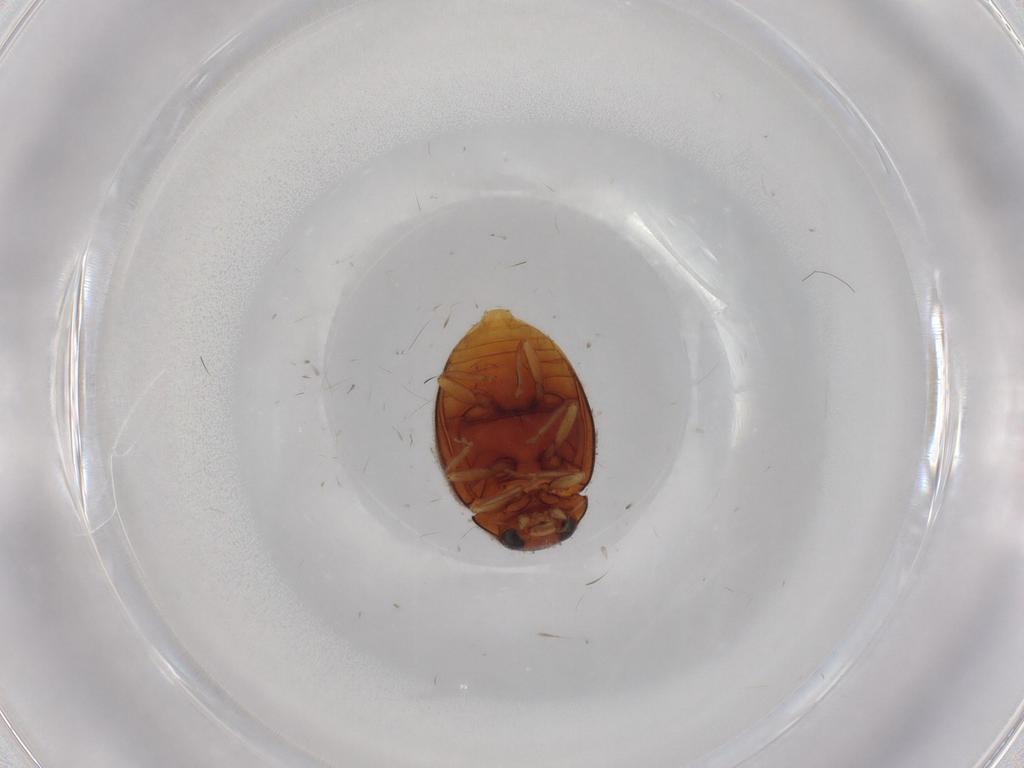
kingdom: Animalia
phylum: Arthropoda
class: Insecta
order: Coleoptera
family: Coccinellidae
